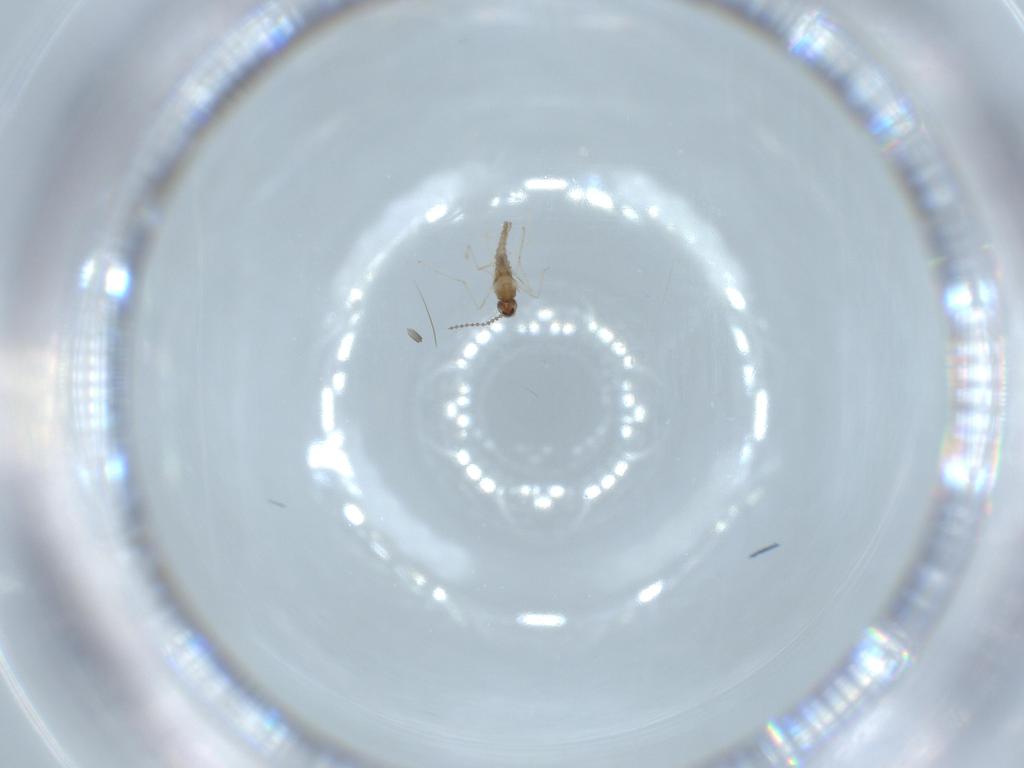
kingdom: Animalia
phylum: Arthropoda
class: Insecta
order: Diptera
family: Cecidomyiidae
